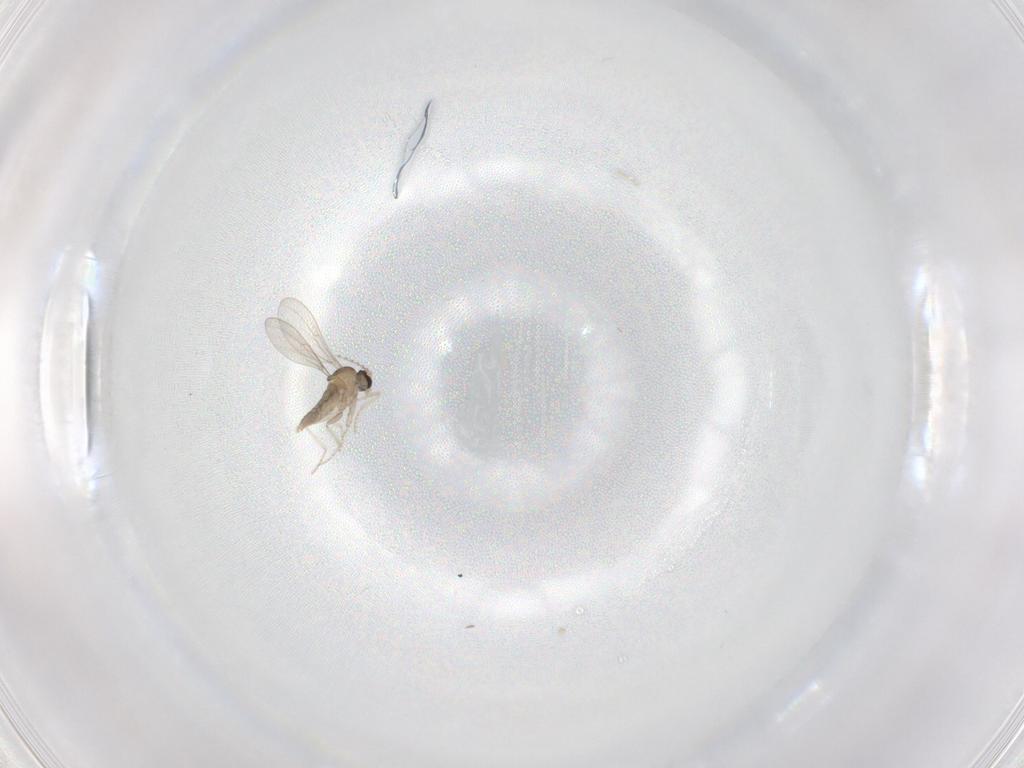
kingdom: Animalia
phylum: Arthropoda
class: Insecta
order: Diptera
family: Cecidomyiidae
